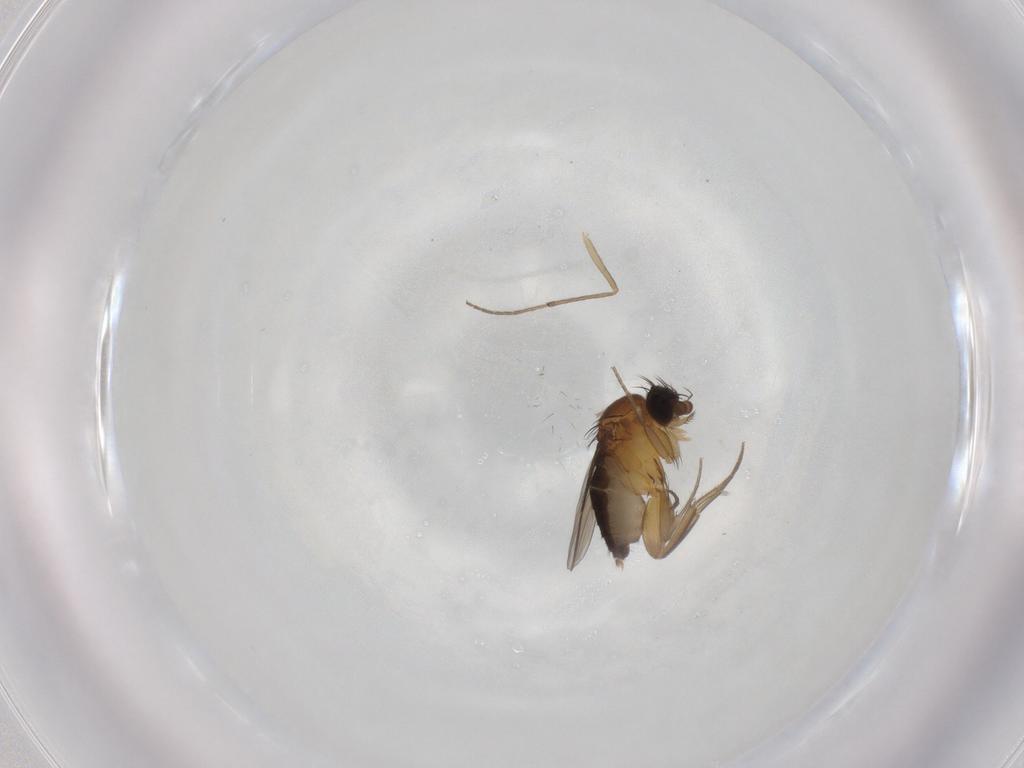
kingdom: Animalia
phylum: Arthropoda
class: Insecta
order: Diptera
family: Phoridae
